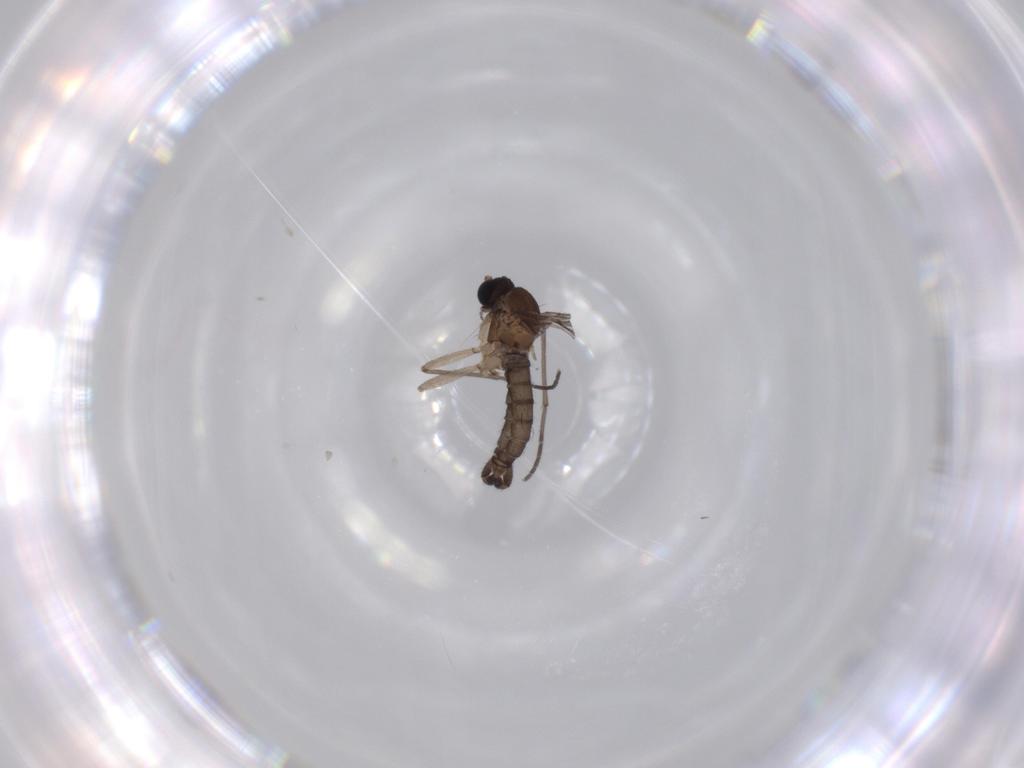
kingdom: Animalia
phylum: Arthropoda
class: Insecta
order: Diptera
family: Sciaridae
